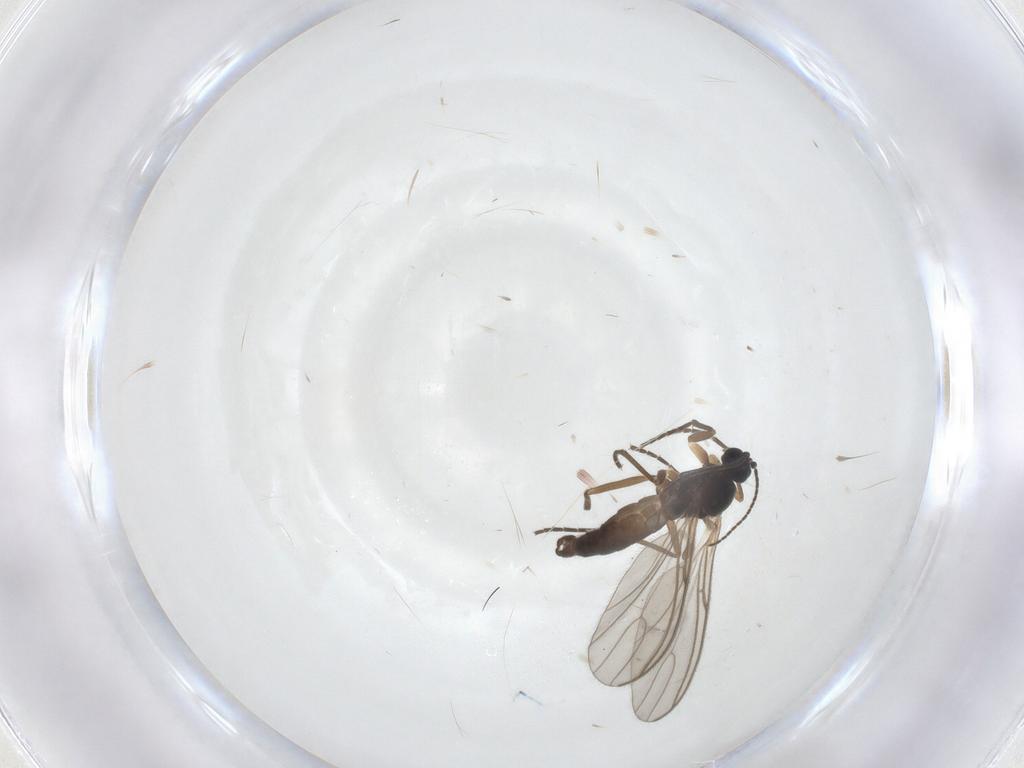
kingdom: Animalia
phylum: Arthropoda
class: Insecta
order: Diptera
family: Sciaridae
